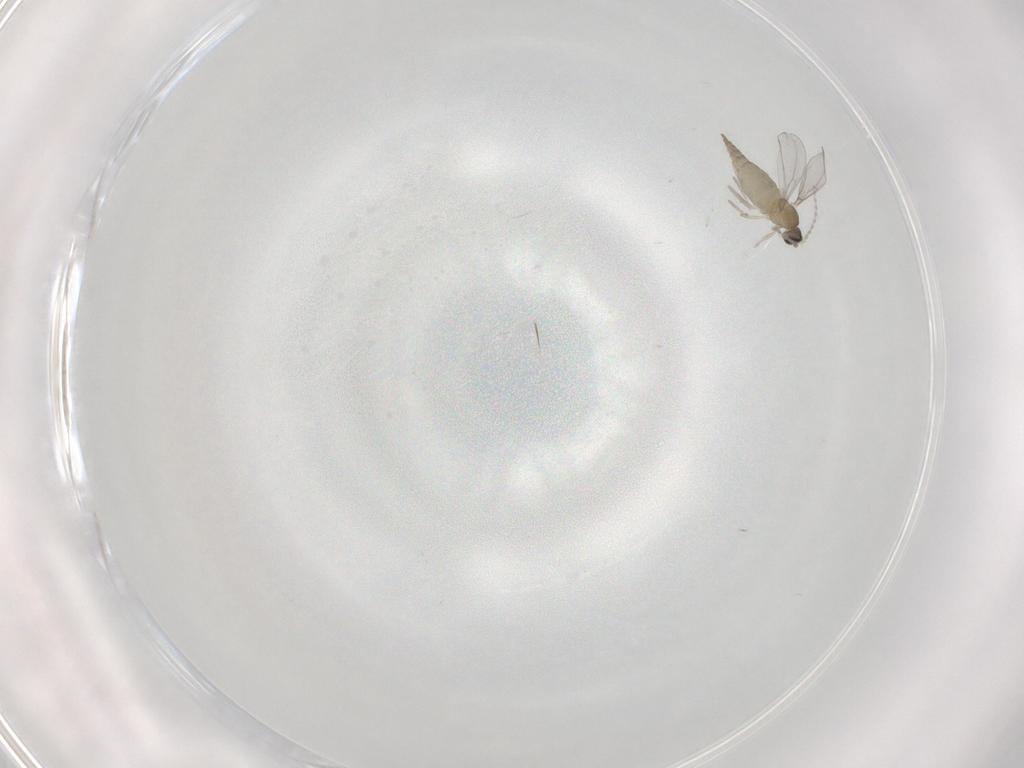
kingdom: Animalia
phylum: Arthropoda
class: Insecta
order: Diptera
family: Cecidomyiidae
